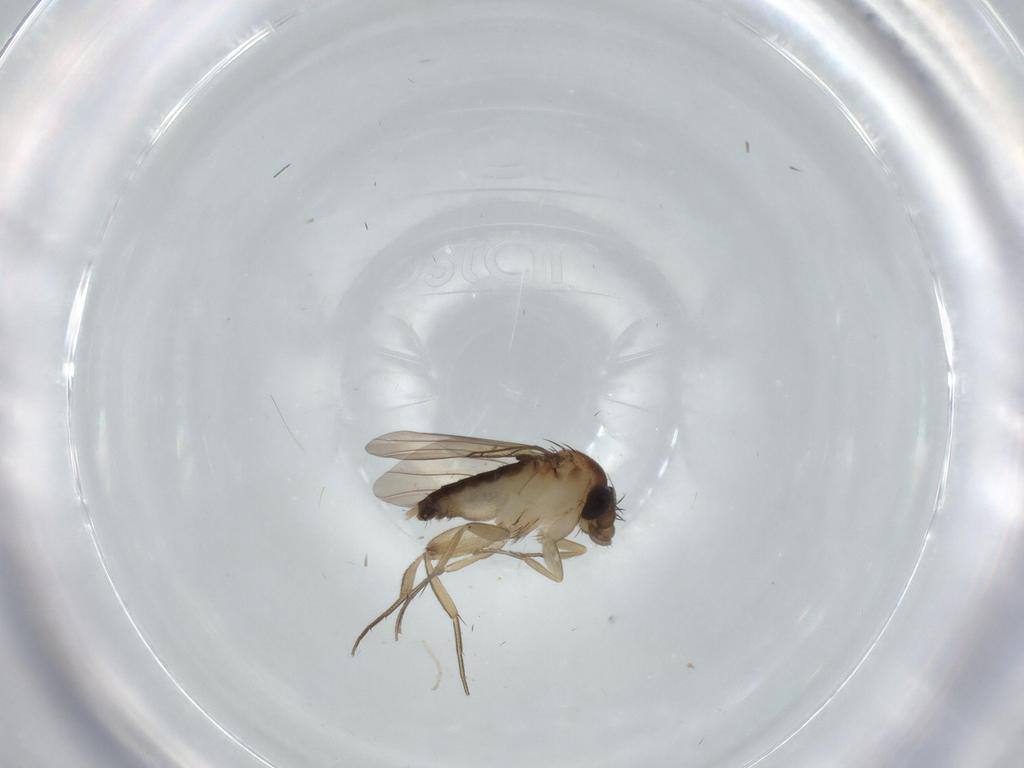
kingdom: Animalia
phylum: Arthropoda
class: Insecta
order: Diptera
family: Phoridae
